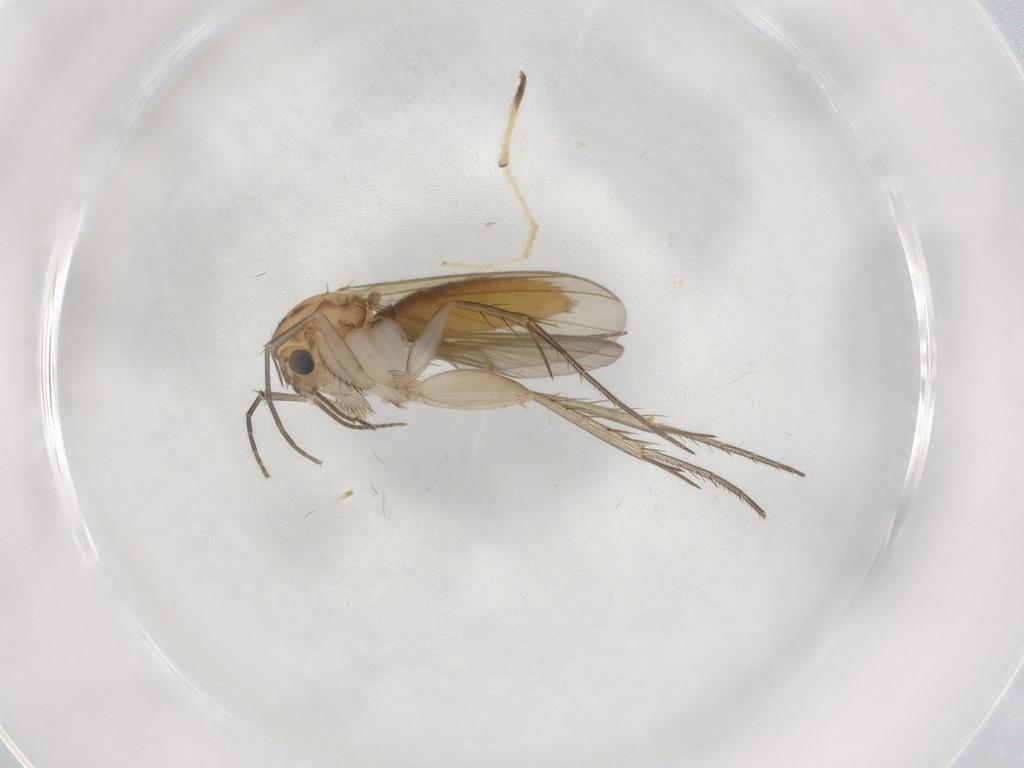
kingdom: Animalia
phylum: Arthropoda
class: Insecta
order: Diptera
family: Mycetophilidae
